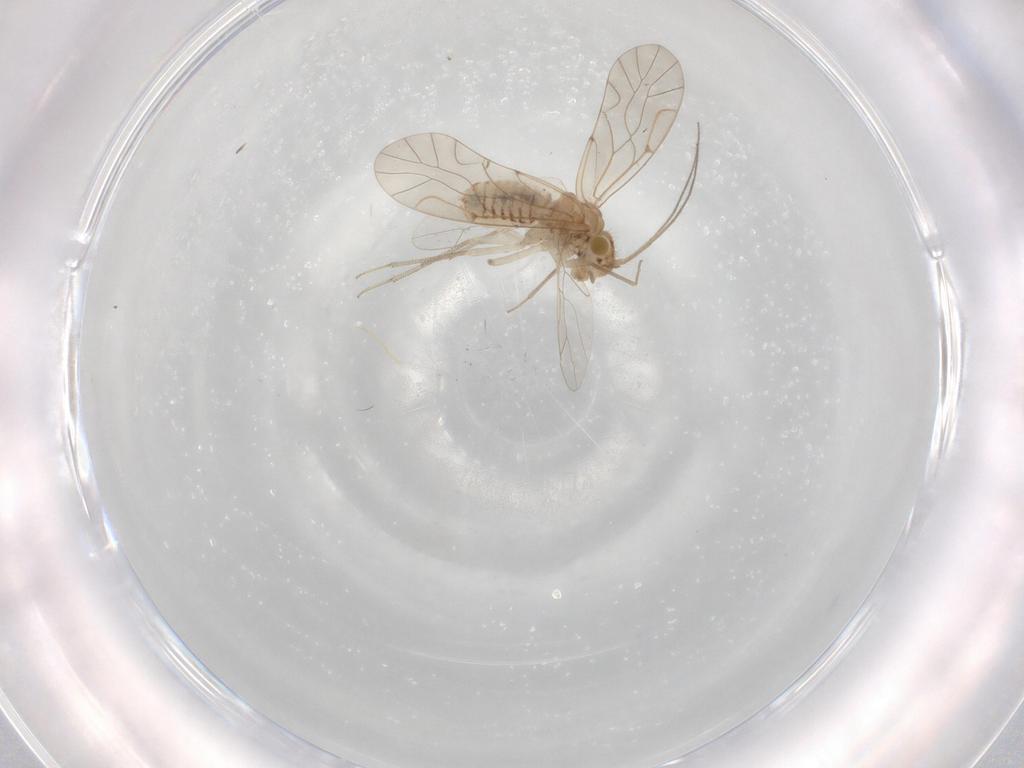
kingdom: Animalia
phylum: Arthropoda
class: Insecta
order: Psocodea
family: Lachesillidae
